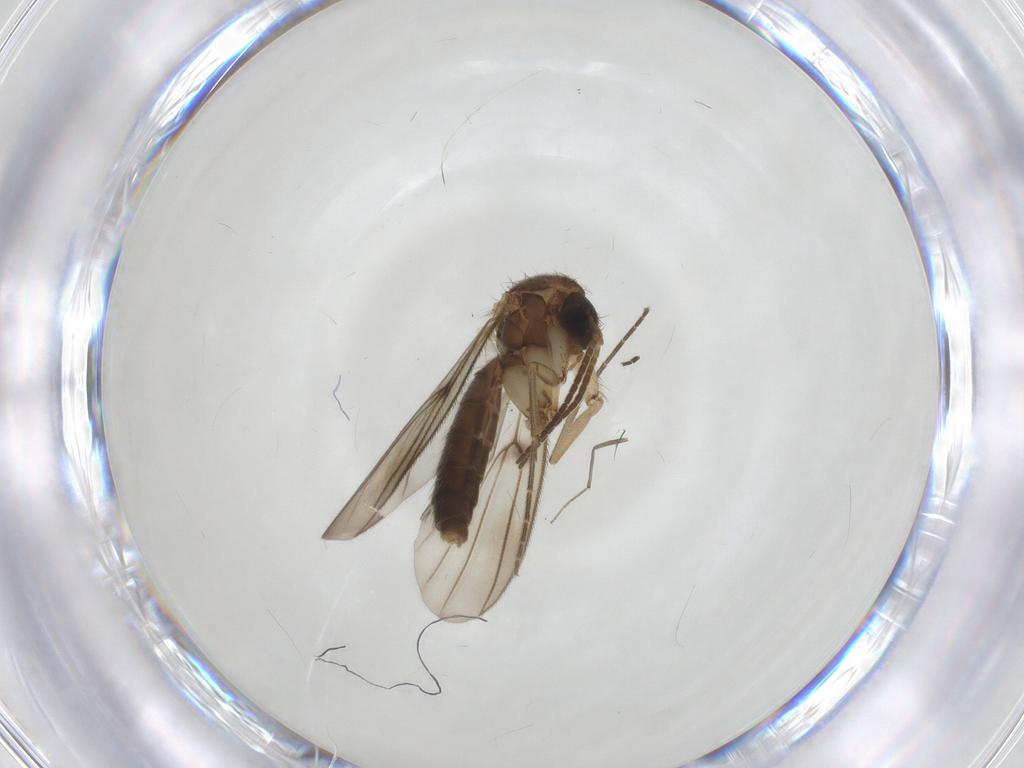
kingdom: Animalia
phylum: Arthropoda
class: Insecta
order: Diptera
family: Mycetophilidae
